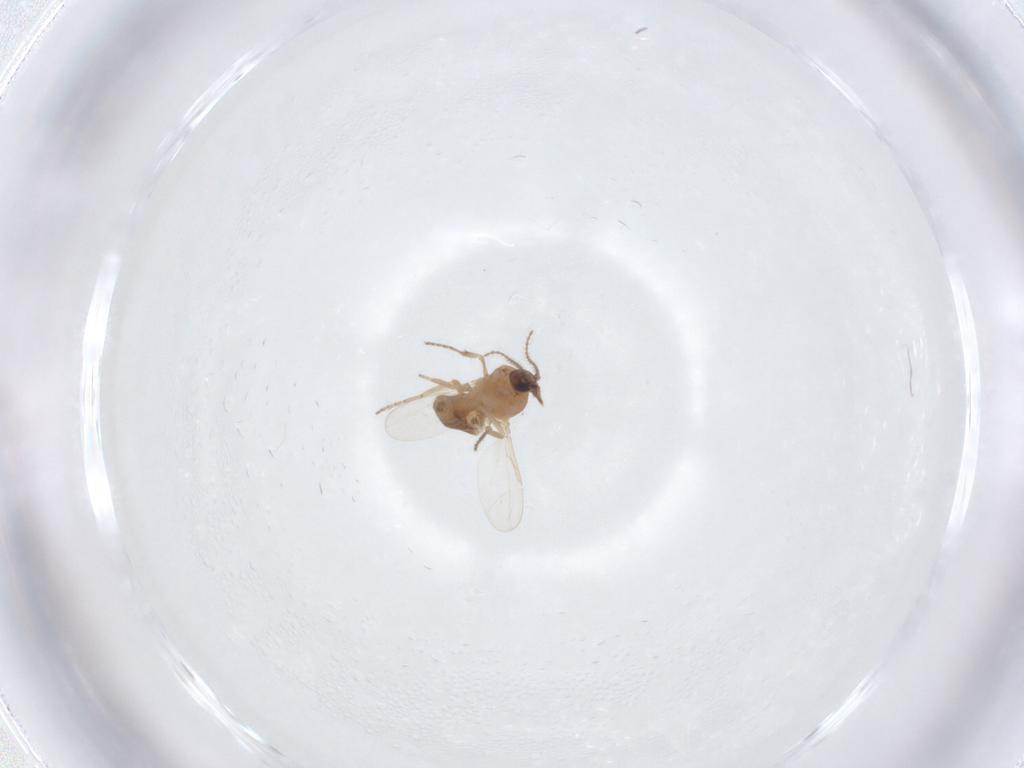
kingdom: Animalia
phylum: Arthropoda
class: Insecta
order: Diptera
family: Ceratopogonidae
